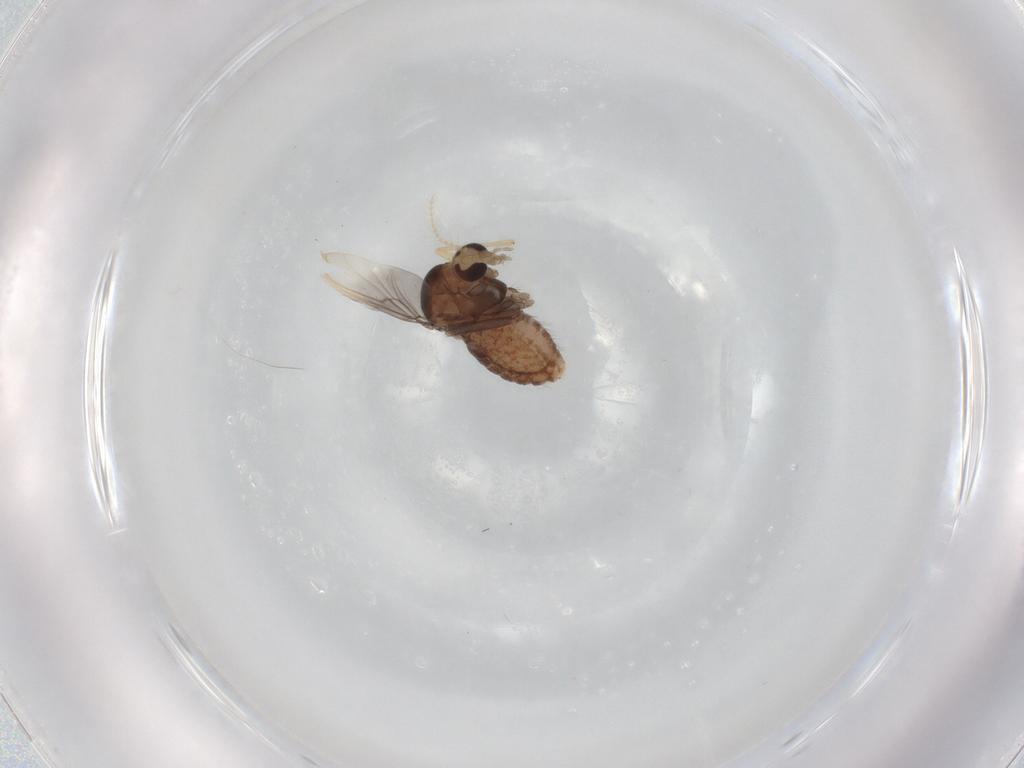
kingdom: Animalia
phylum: Arthropoda
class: Insecta
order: Diptera
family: Chironomidae
